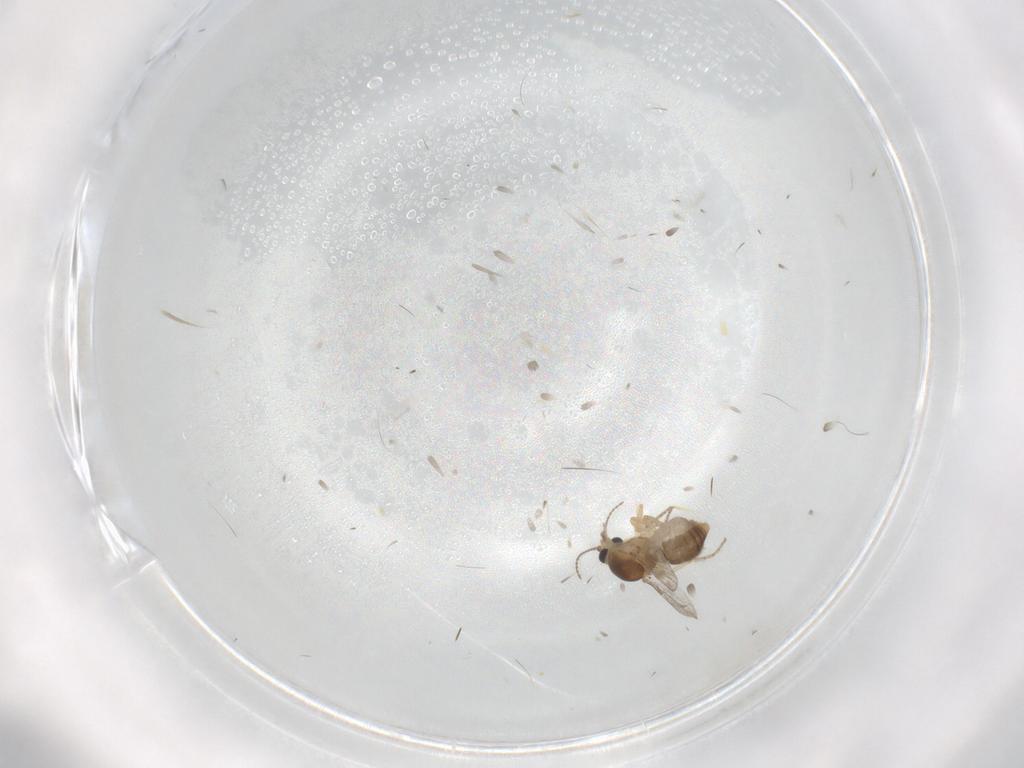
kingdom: Animalia
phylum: Arthropoda
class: Insecta
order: Diptera
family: Ceratopogonidae
